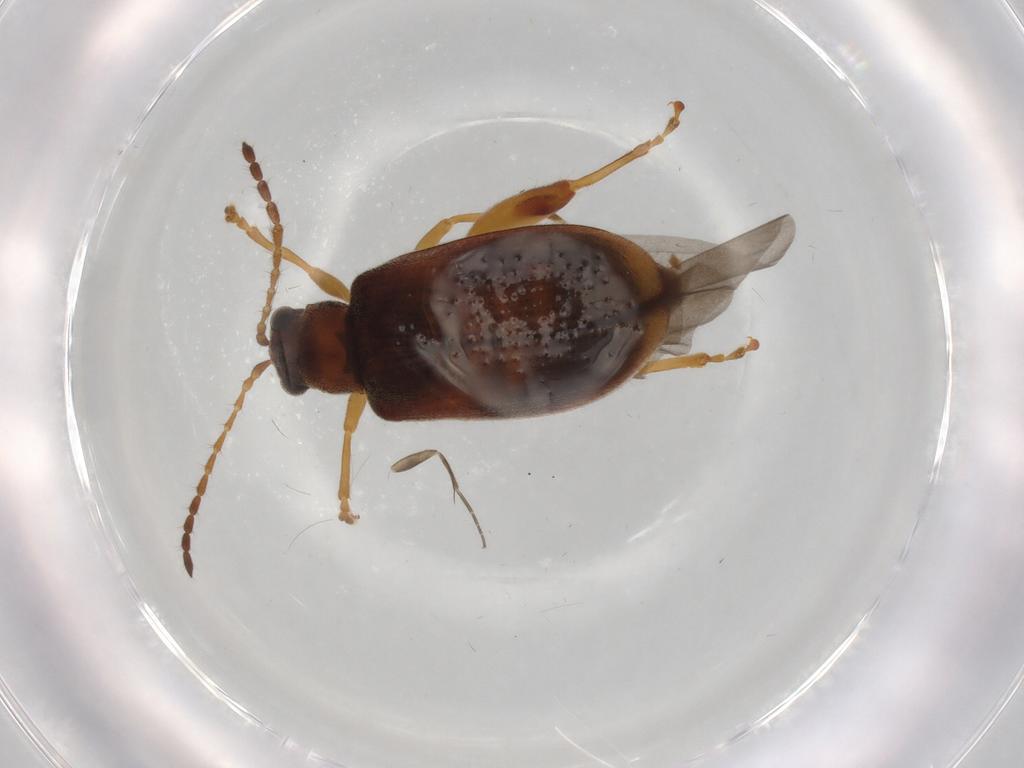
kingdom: Animalia
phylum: Arthropoda
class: Insecta
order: Coleoptera
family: Chrysomelidae
